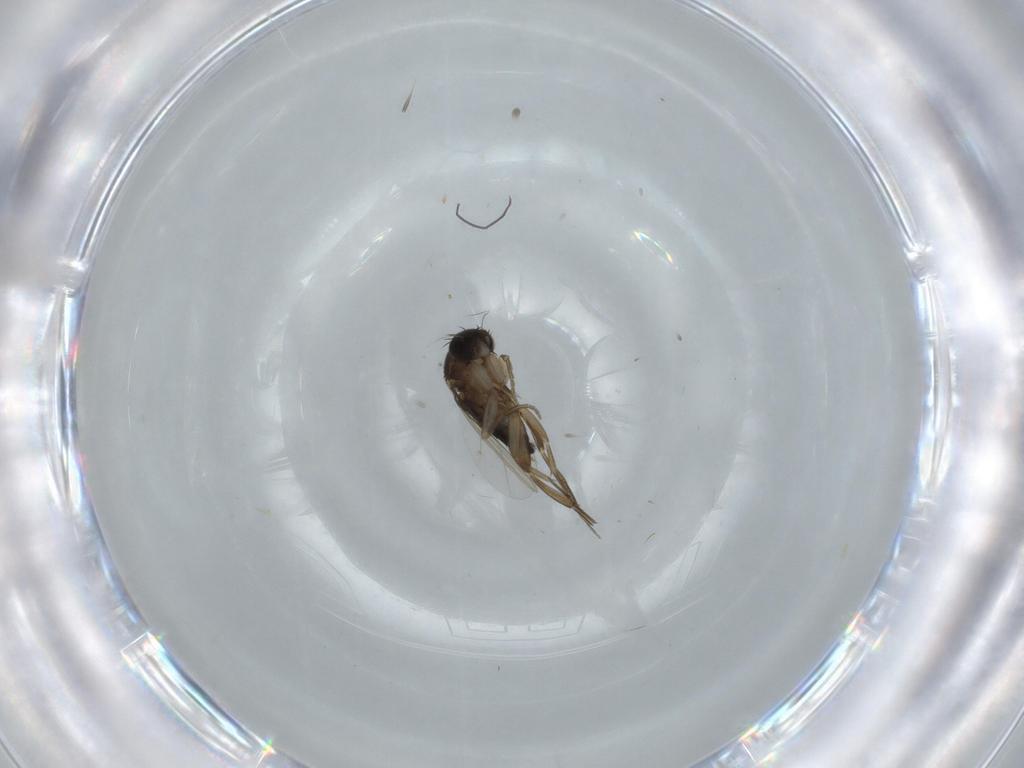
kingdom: Animalia
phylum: Arthropoda
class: Insecta
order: Diptera
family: Phoridae
